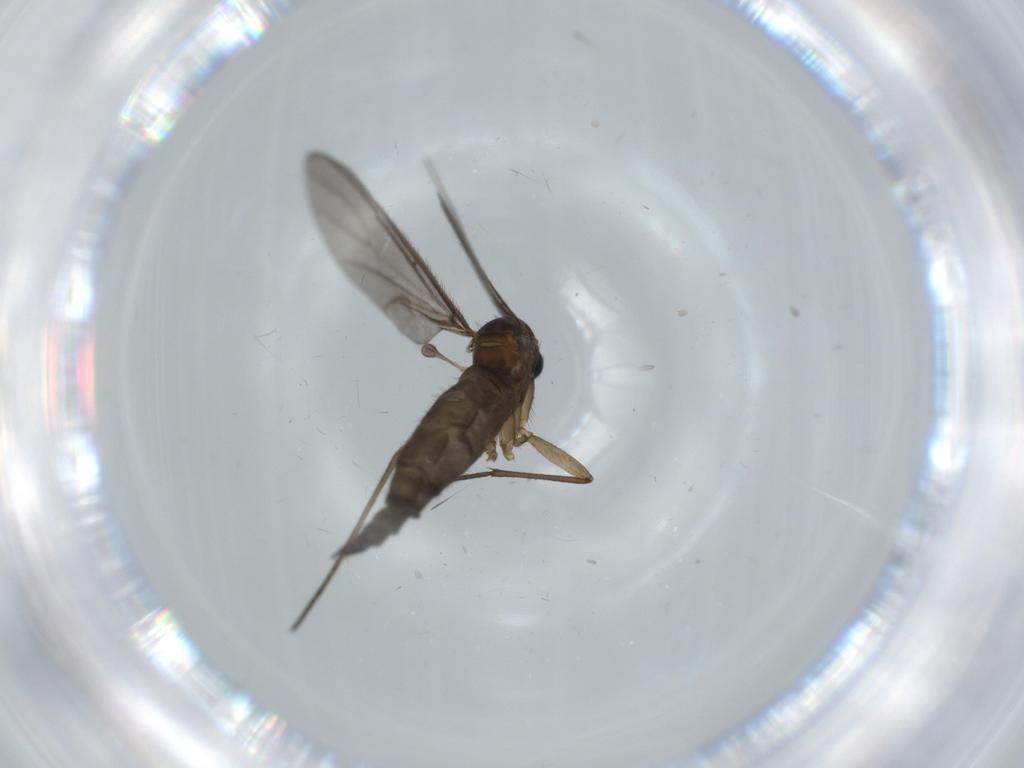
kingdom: Animalia
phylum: Arthropoda
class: Insecta
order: Diptera
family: Sciaridae
